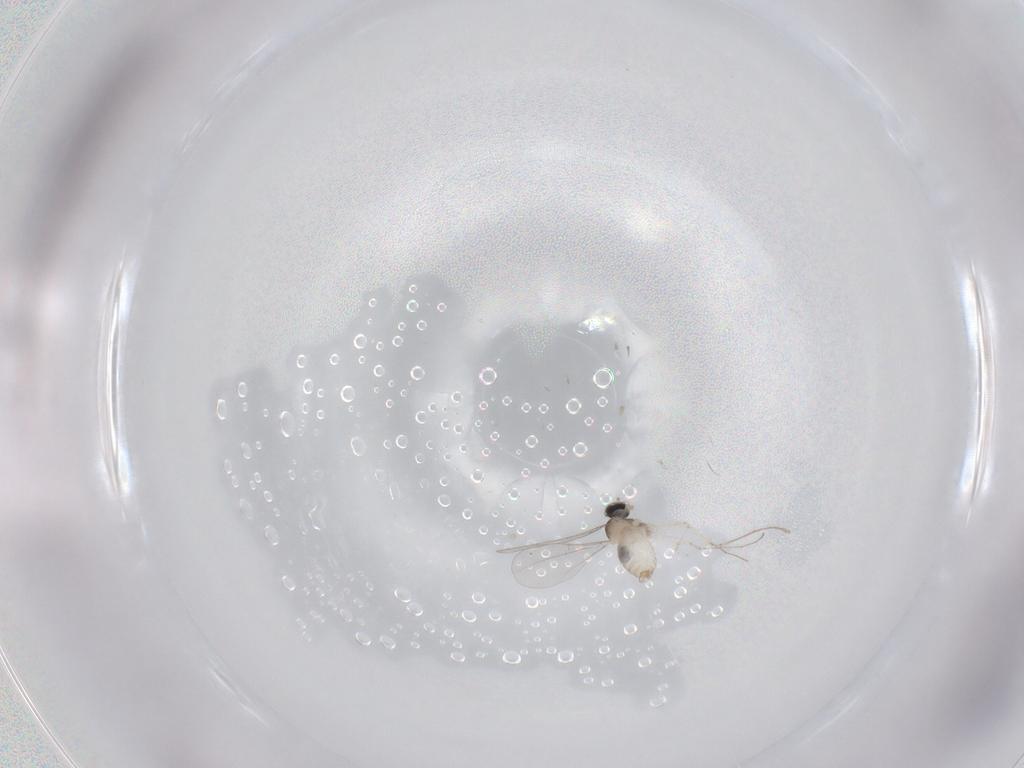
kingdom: Animalia
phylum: Arthropoda
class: Insecta
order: Diptera
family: Cecidomyiidae
